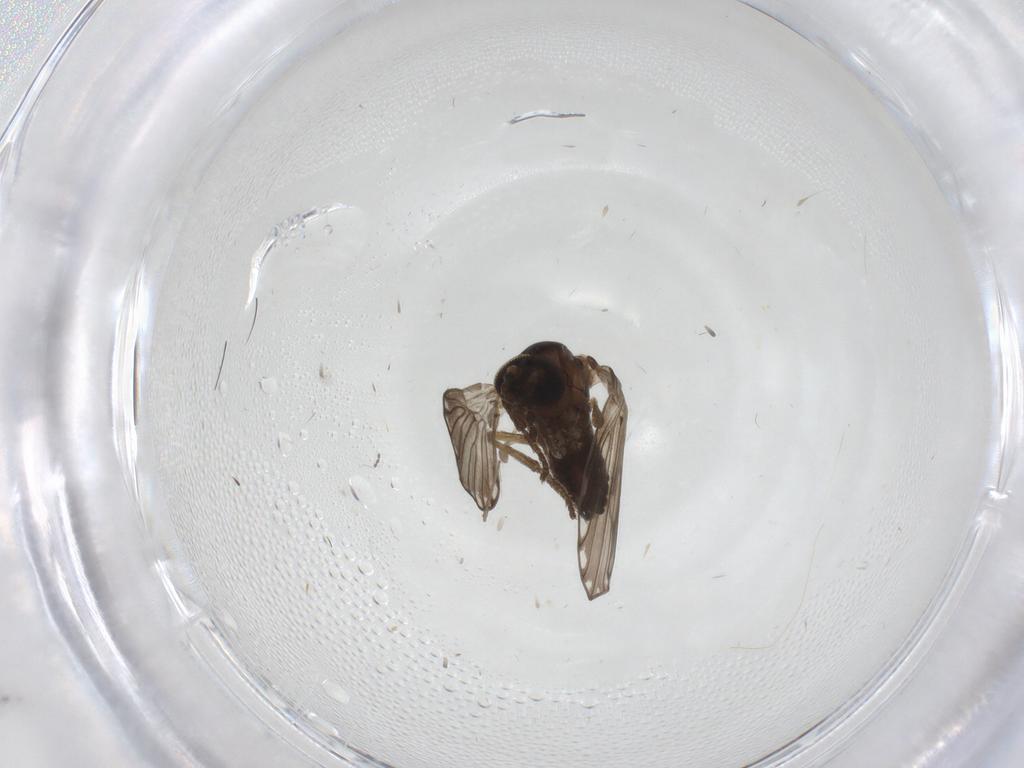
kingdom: Animalia
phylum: Arthropoda
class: Insecta
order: Diptera
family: Psychodidae
